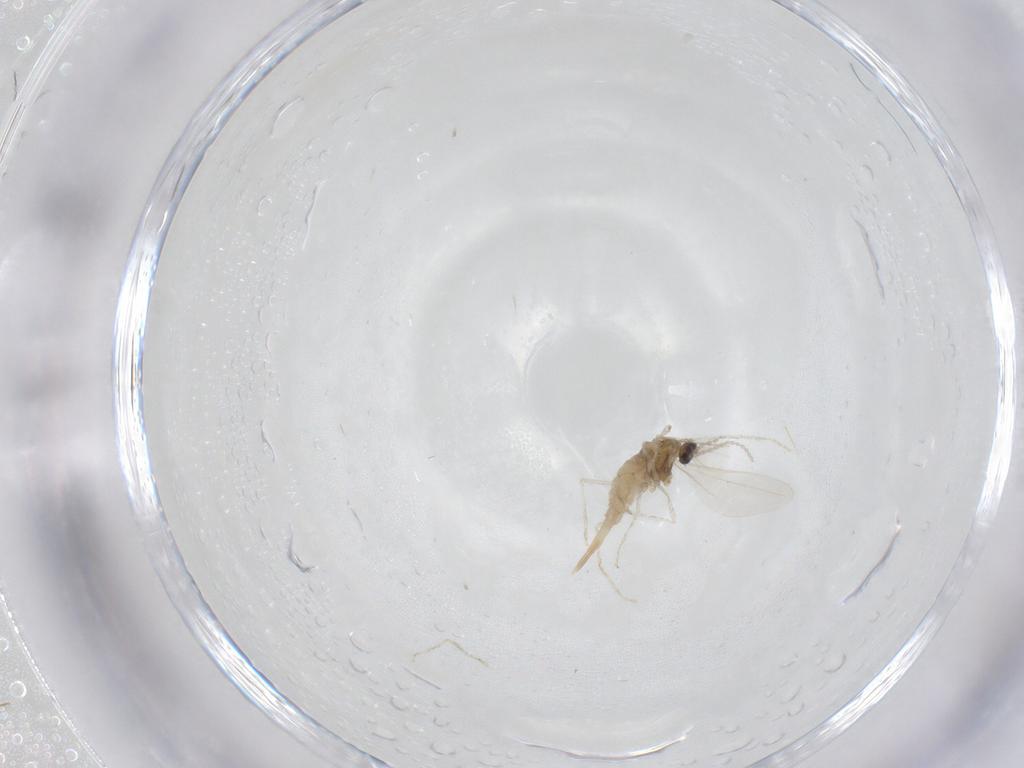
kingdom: Animalia
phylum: Arthropoda
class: Insecta
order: Diptera
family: Cecidomyiidae
